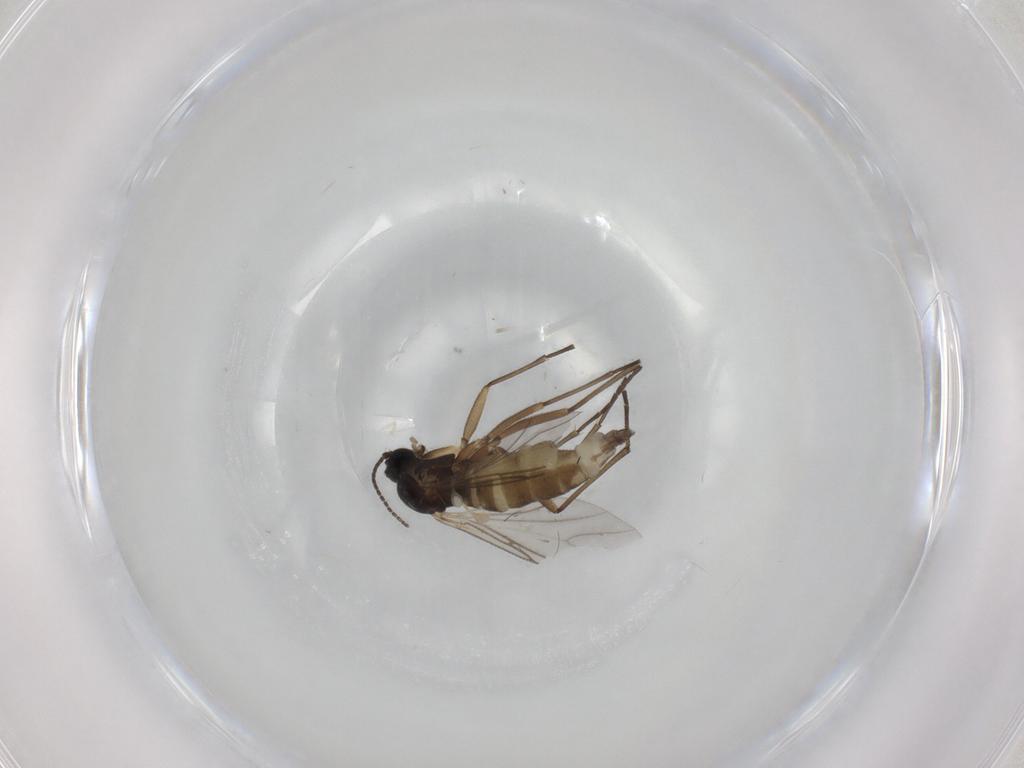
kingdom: Animalia
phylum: Arthropoda
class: Insecta
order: Diptera
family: Sciaridae
